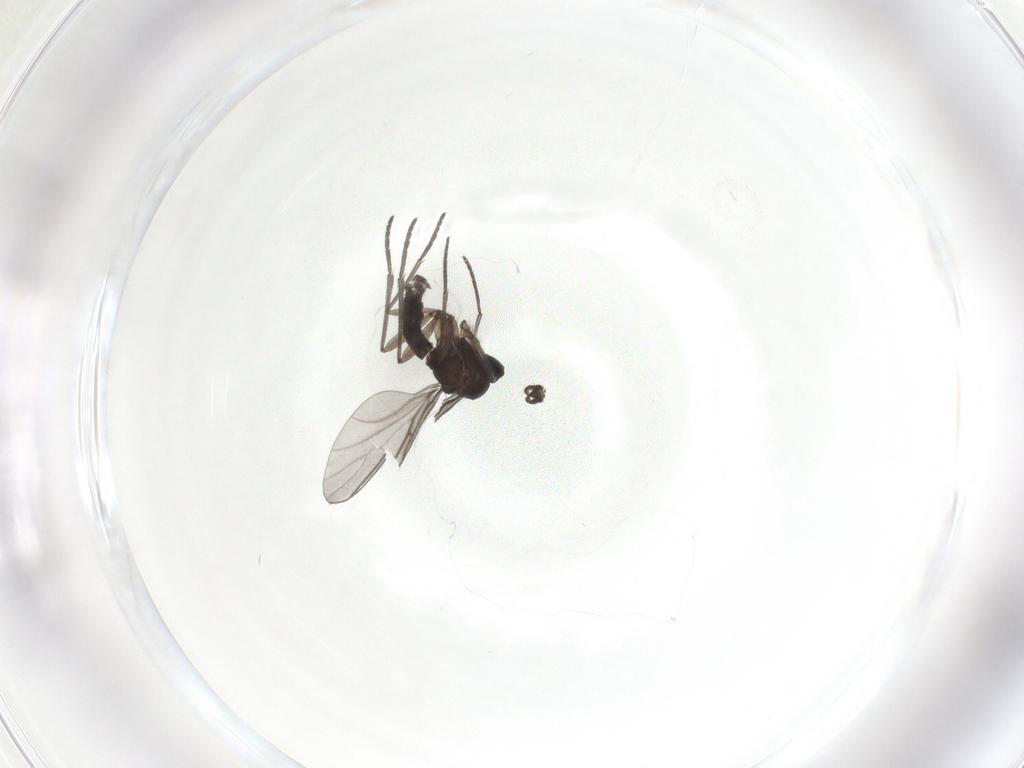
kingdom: Animalia
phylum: Arthropoda
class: Insecta
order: Diptera
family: Sciaridae
